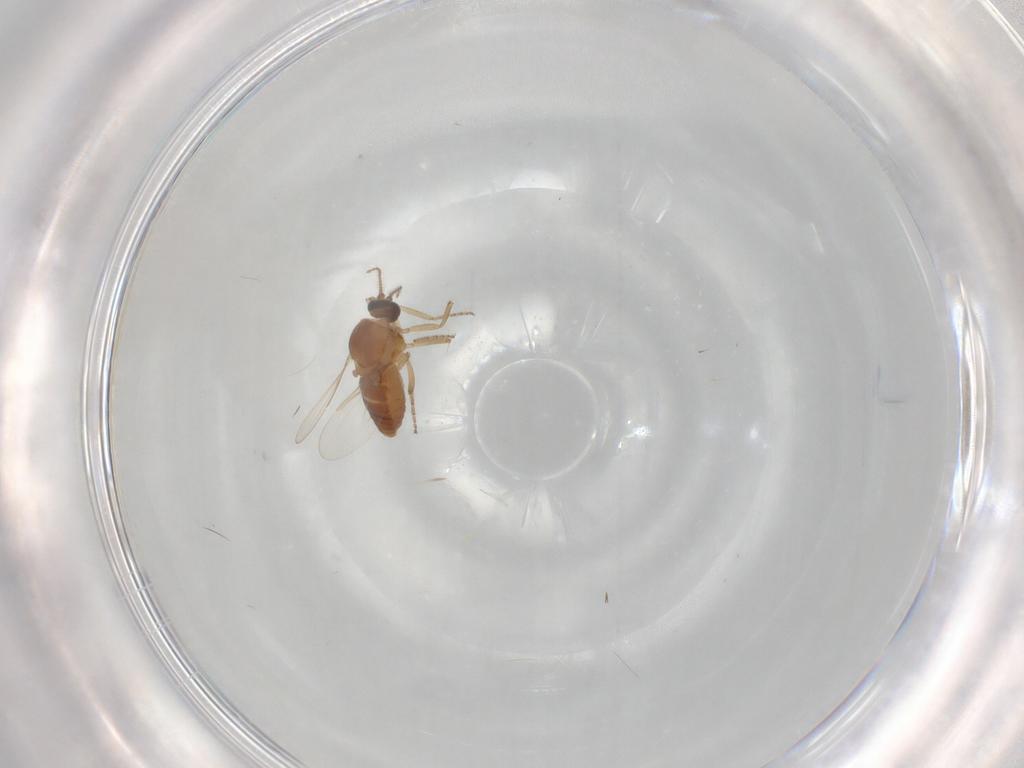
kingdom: Animalia
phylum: Arthropoda
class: Insecta
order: Diptera
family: Ceratopogonidae
